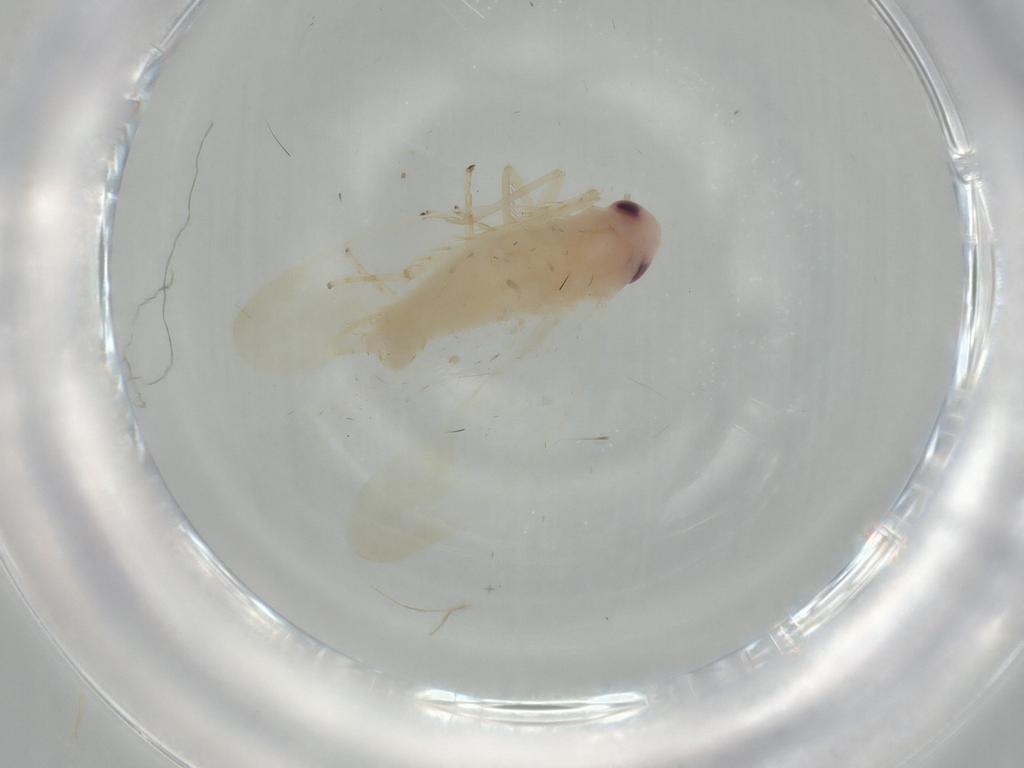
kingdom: Animalia
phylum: Arthropoda
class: Insecta
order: Hemiptera
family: Cicadellidae
